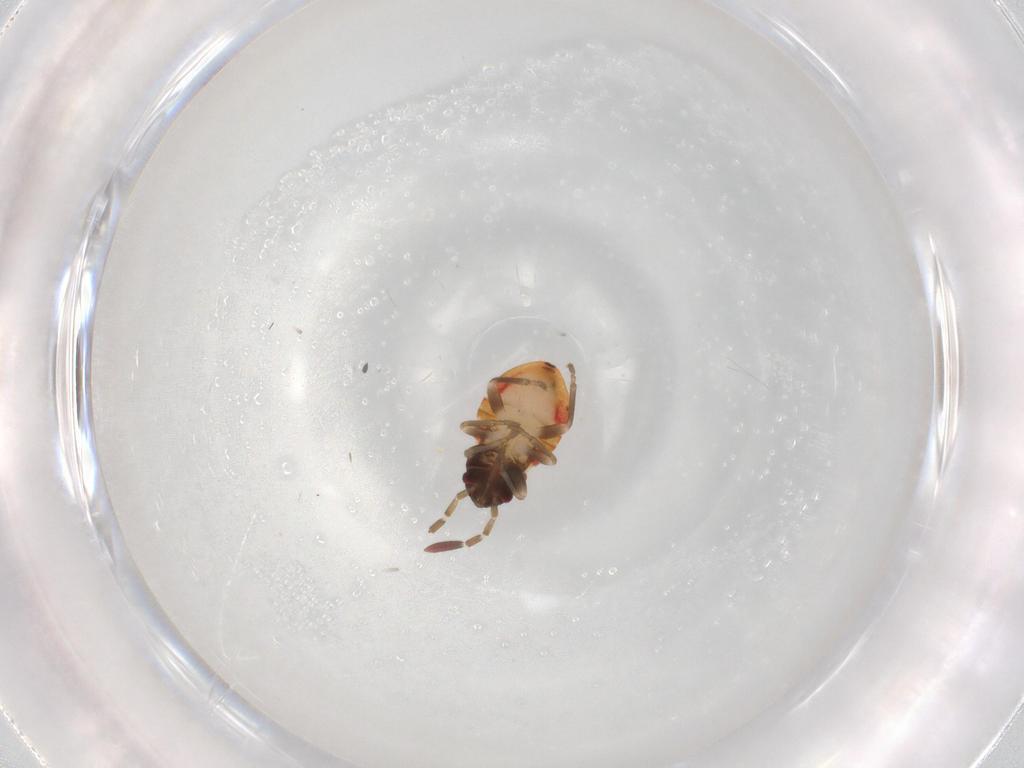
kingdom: Animalia
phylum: Arthropoda
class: Insecta
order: Hemiptera
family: Rhyparochromidae
